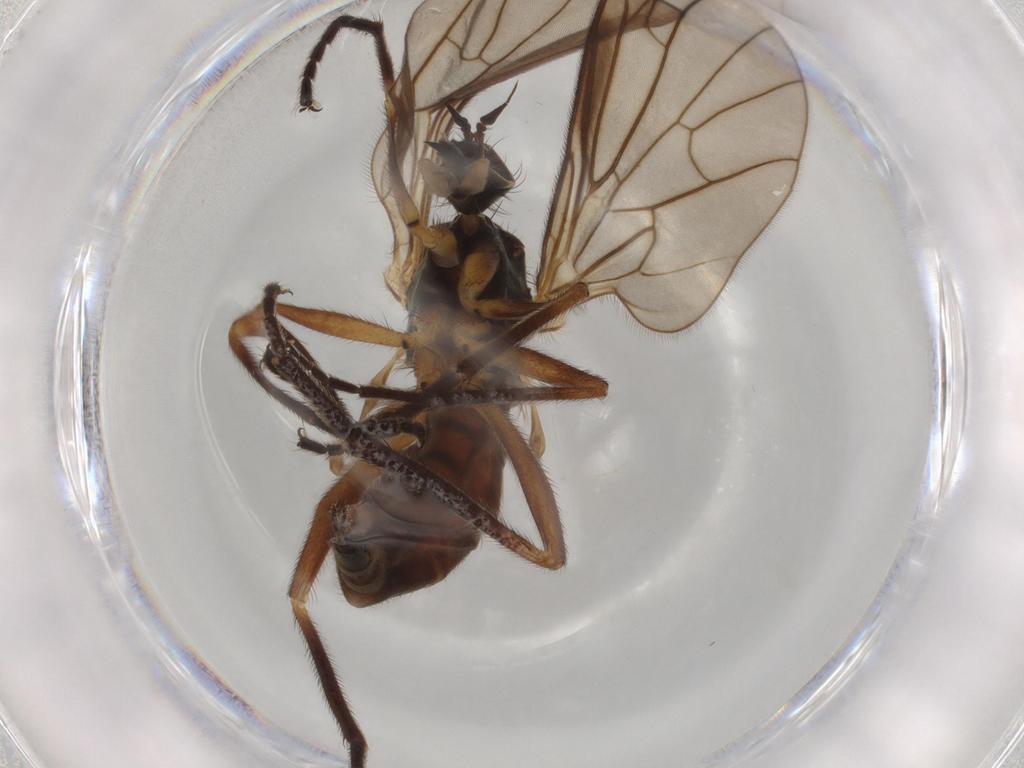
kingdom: Animalia
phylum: Arthropoda
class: Insecta
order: Diptera
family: Empididae
